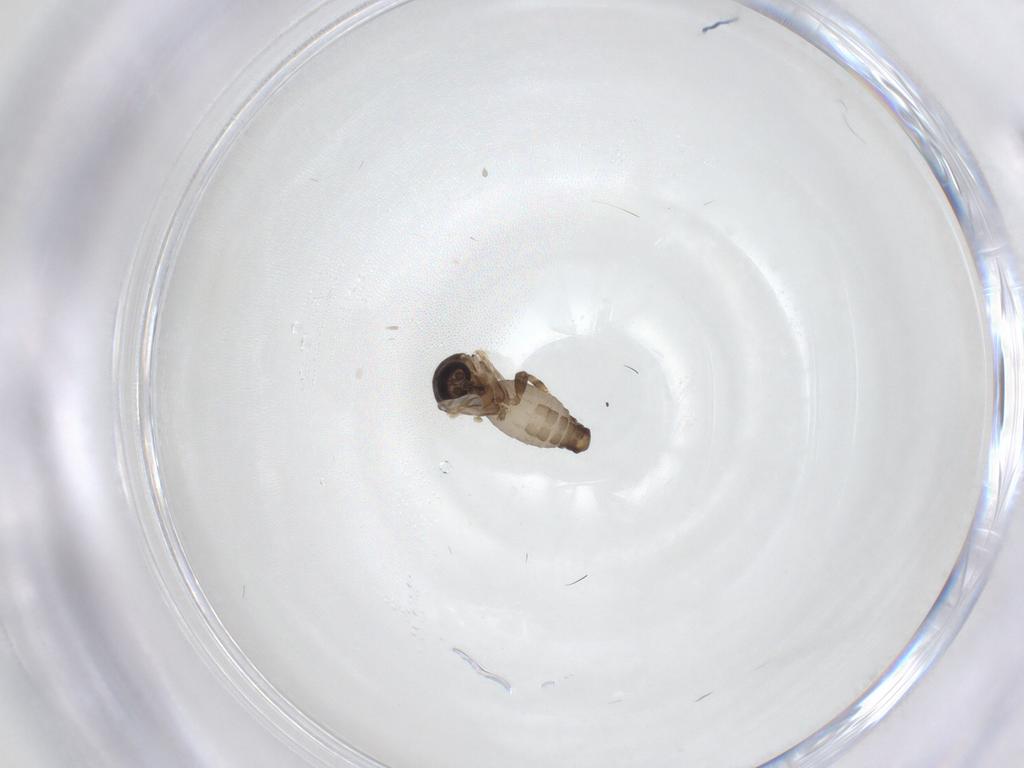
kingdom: Animalia
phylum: Arthropoda
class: Insecta
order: Diptera
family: Ceratopogonidae
